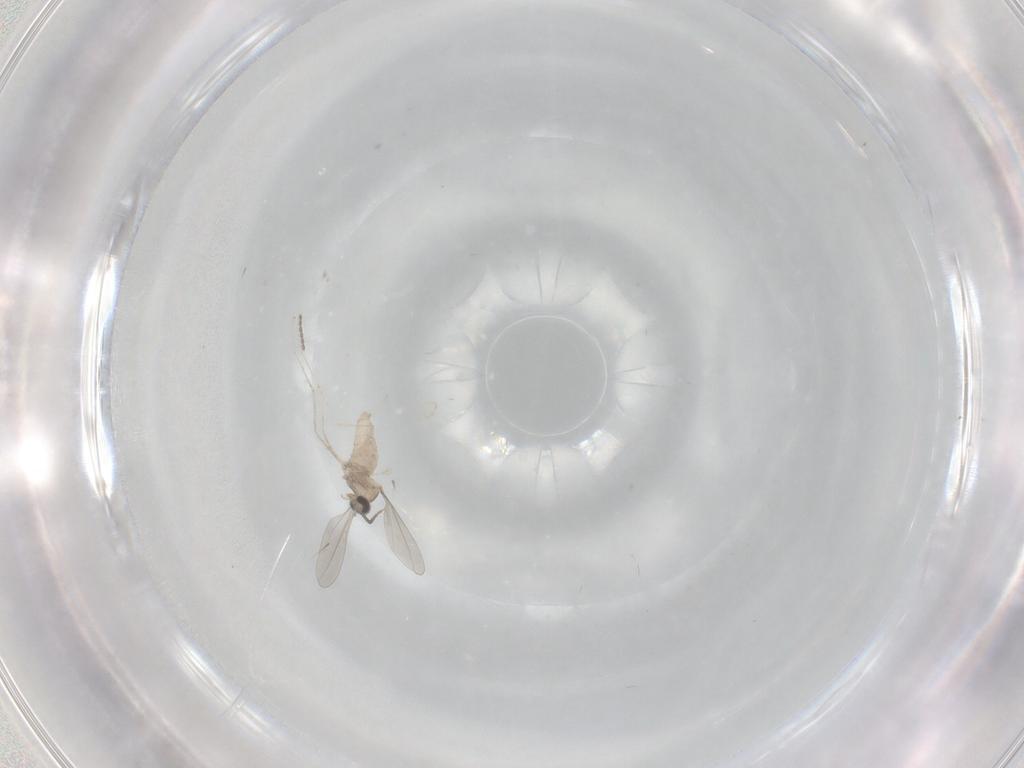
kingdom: Animalia
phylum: Arthropoda
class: Insecta
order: Diptera
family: Cecidomyiidae
